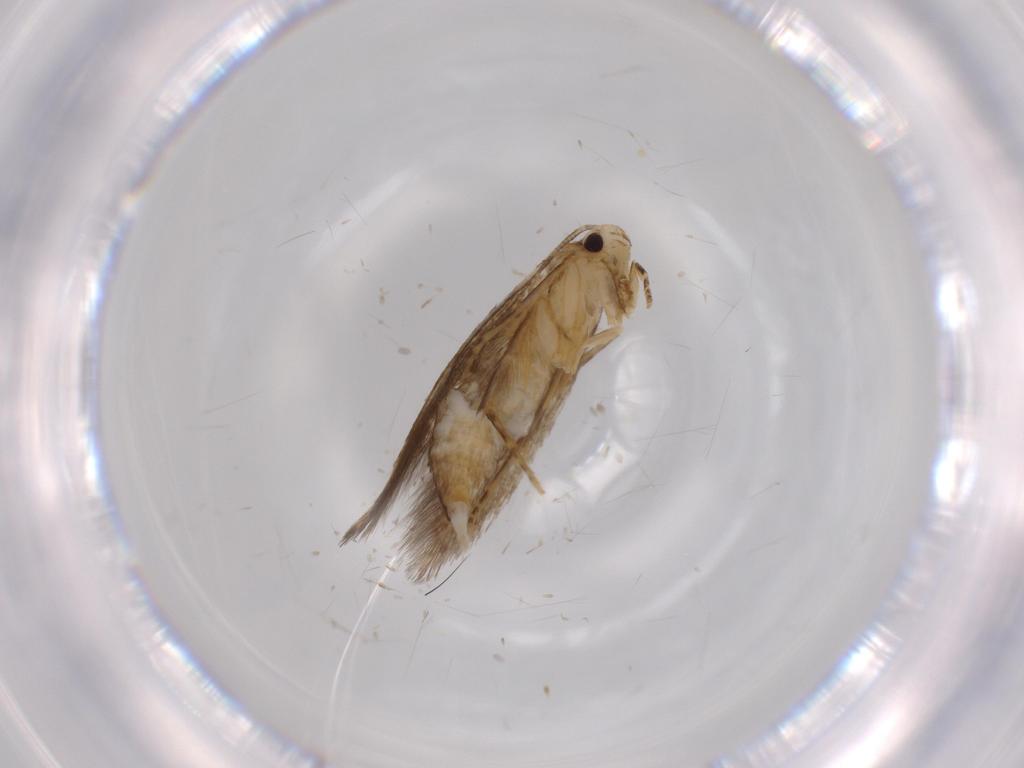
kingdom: Animalia
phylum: Arthropoda
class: Insecta
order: Lepidoptera
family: Tineidae
